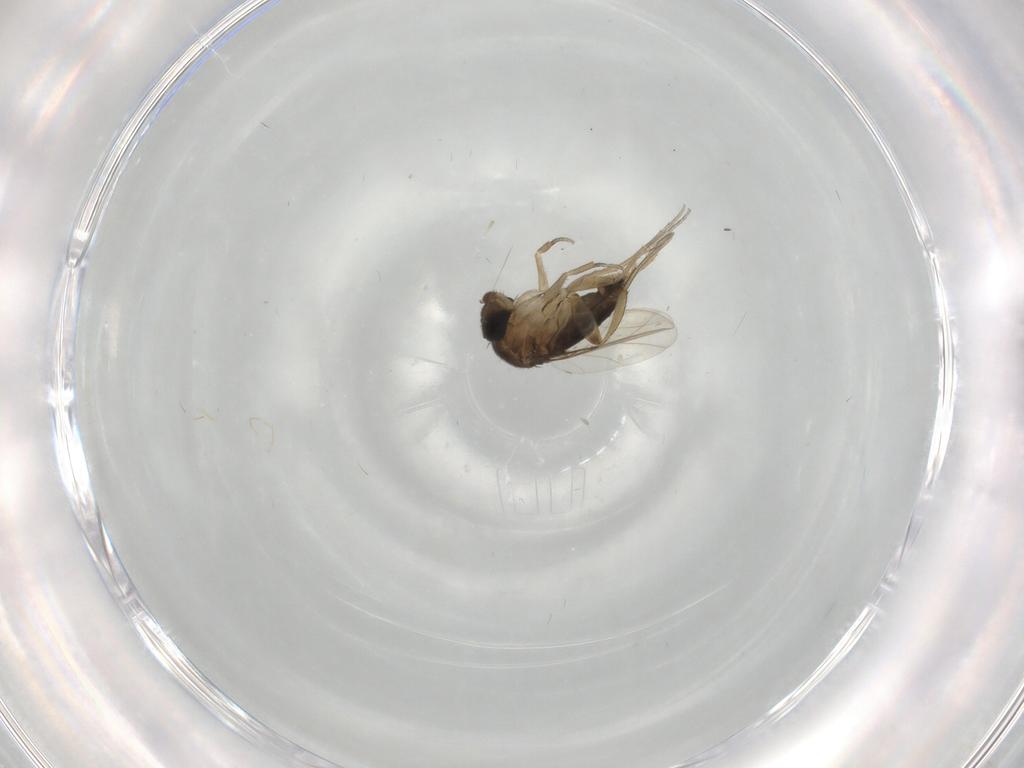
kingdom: Animalia
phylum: Arthropoda
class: Insecta
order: Diptera
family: Phoridae
